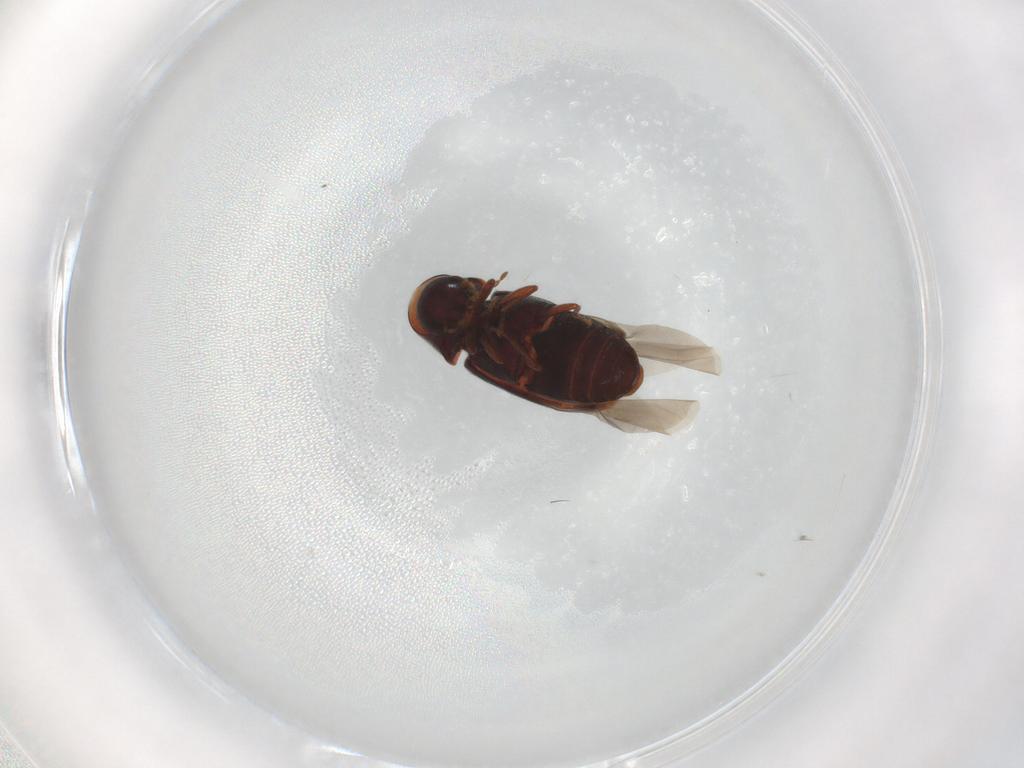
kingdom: Animalia
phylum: Arthropoda
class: Insecta
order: Coleoptera
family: Ptinidae
